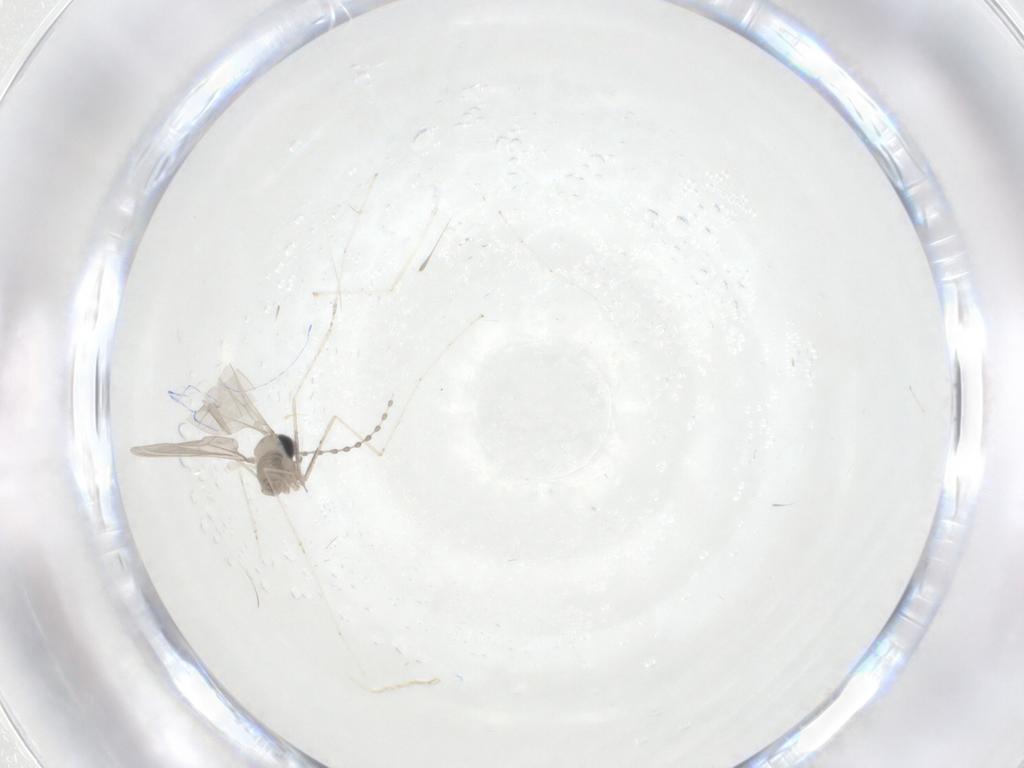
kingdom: Animalia
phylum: Arthropoda
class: Insecta
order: Diptera
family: Cecidomyiidae
